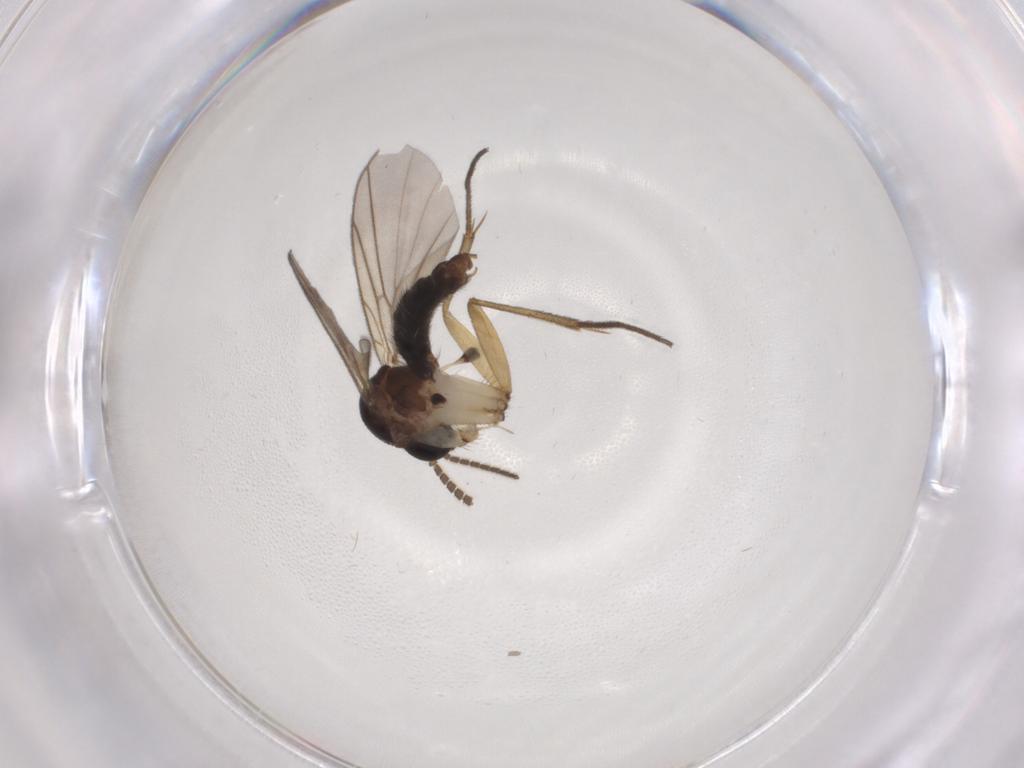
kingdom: Animalia
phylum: Arthropoda
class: Insecta
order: Diptera
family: Mycetophilidae
